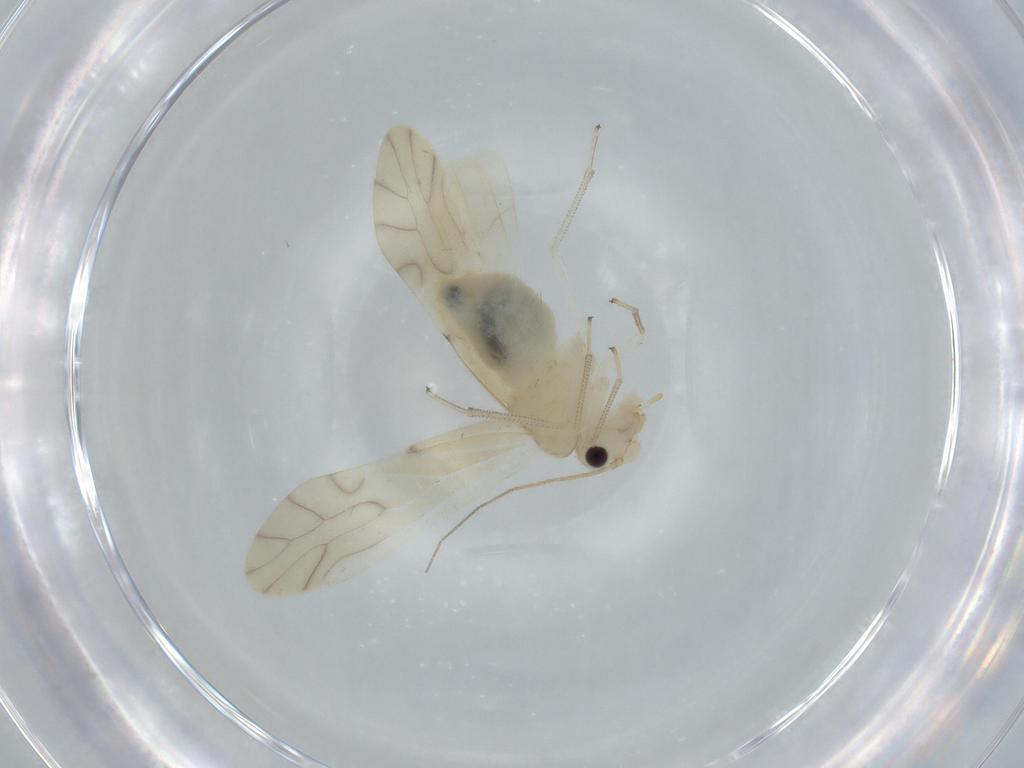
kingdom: Animalia
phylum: Arthropoda
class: Insecta
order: Psocodea
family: Caeciliusidae
